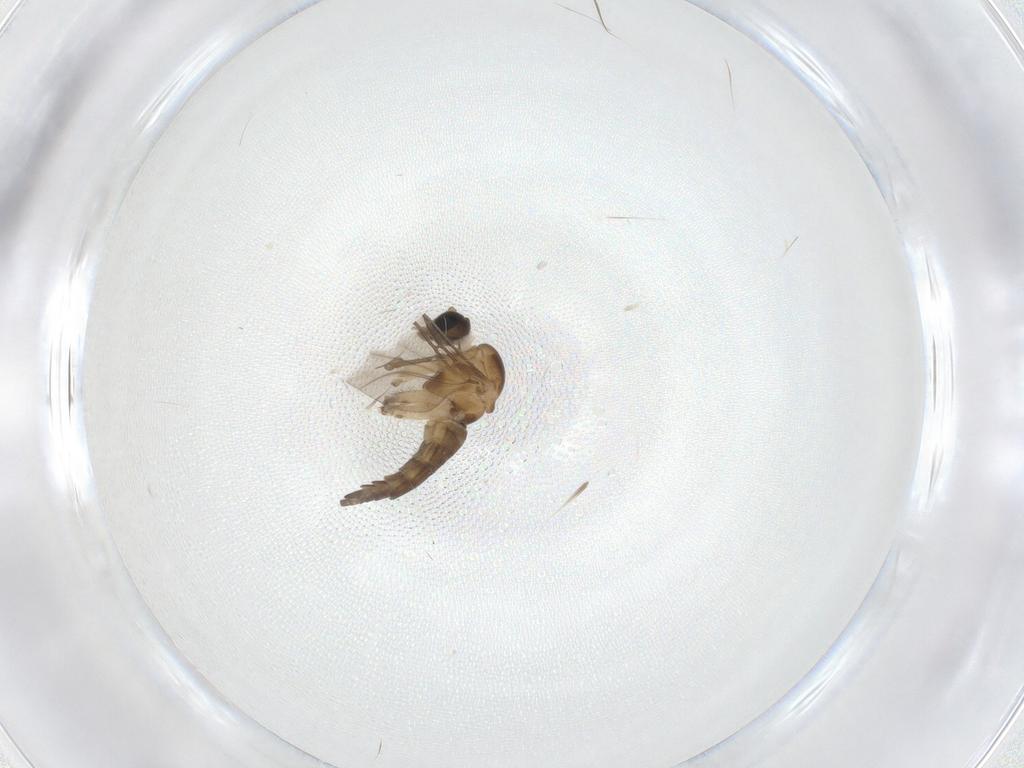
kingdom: Animalia
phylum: Arthropoda
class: Insecta
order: Diptera
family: Sciaridae
